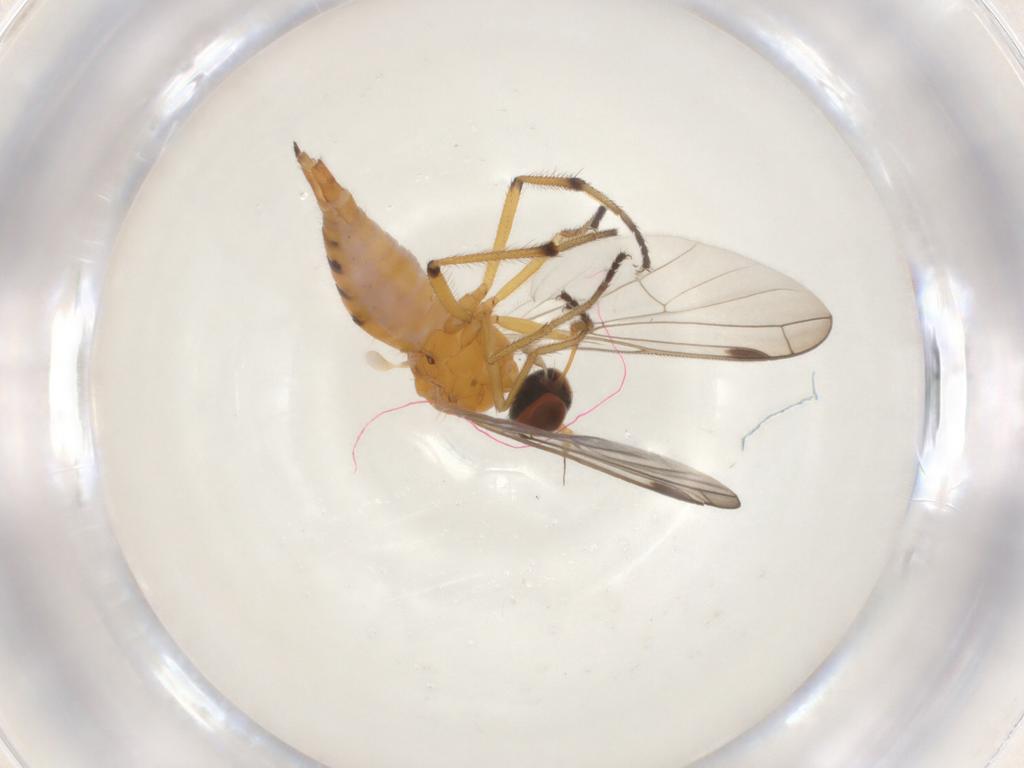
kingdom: Animalia
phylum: Arthropoda
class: Insecta
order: Diptera
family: Empididae
